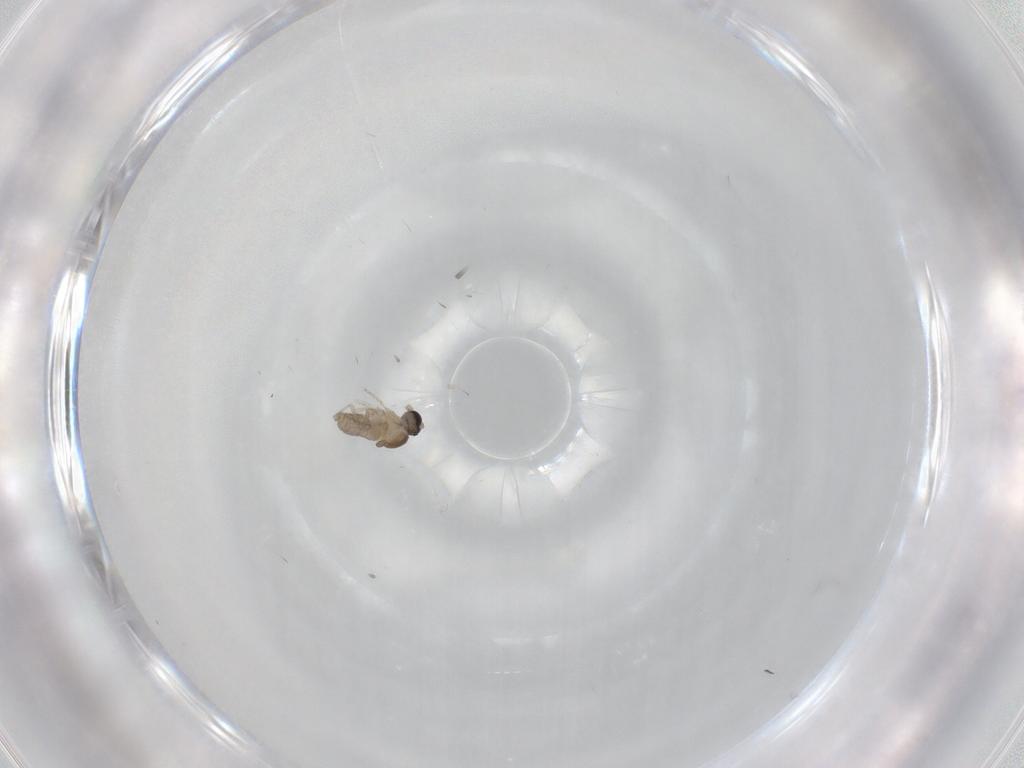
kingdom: Animalia
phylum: Arthropoda
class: Insecta
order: Diptera
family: Cecidomyiidae
